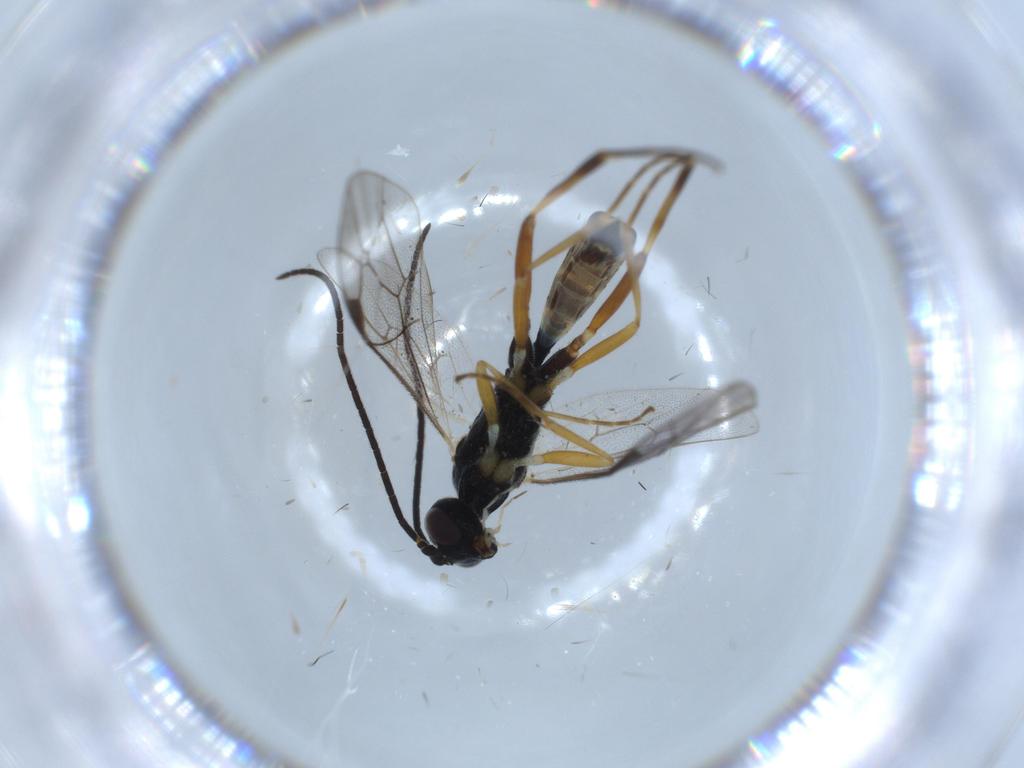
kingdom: Animalia
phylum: Arthropoda
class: Insecta
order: Hymenoptera
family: Ichneumonidae
